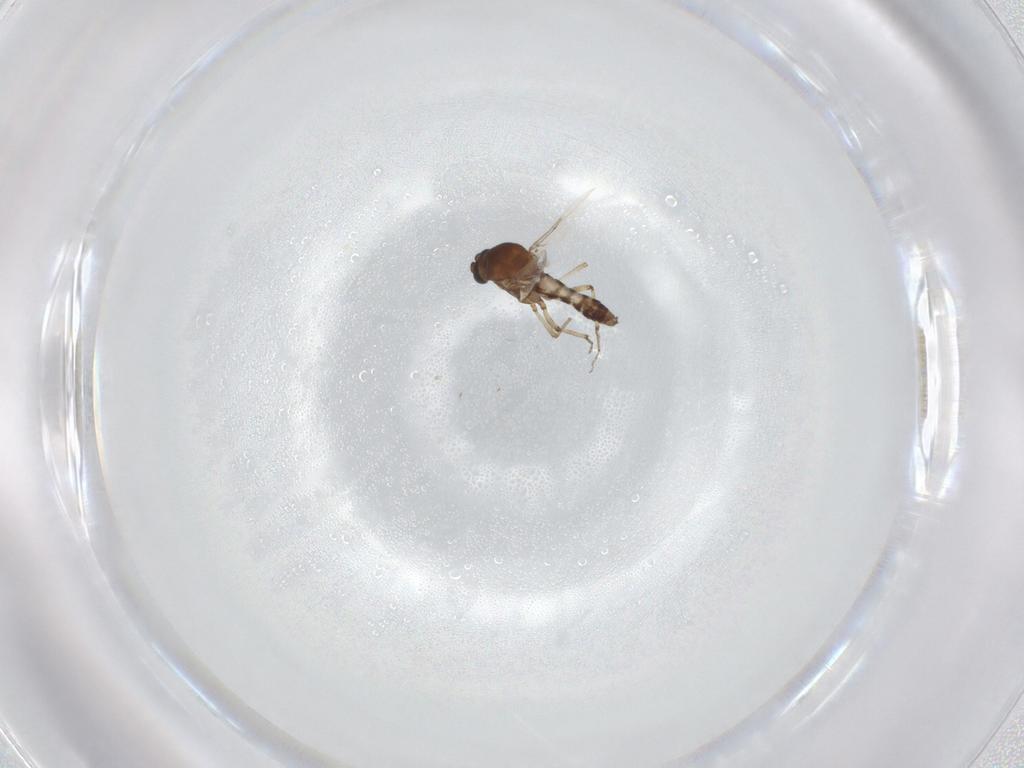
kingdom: Animalia
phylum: Arthropoda
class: Insecta
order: Diptera
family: Ceratopogonidae
